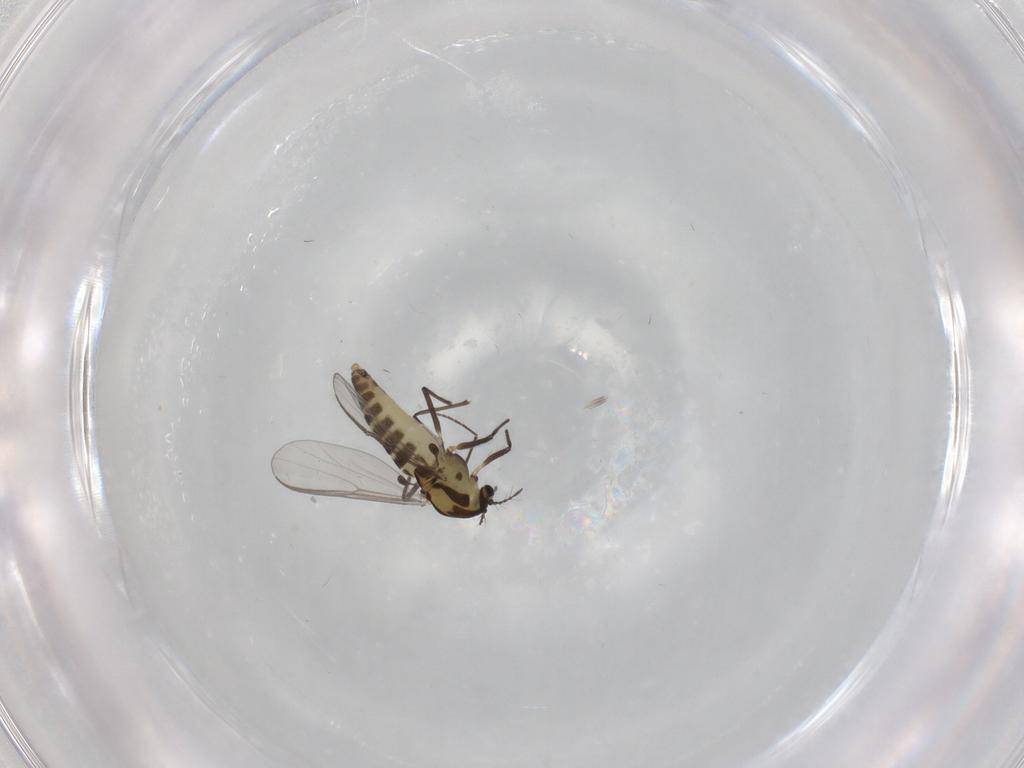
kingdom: Animalia
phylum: Arthropoda
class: Insecta
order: Diptera
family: Chironomidae
